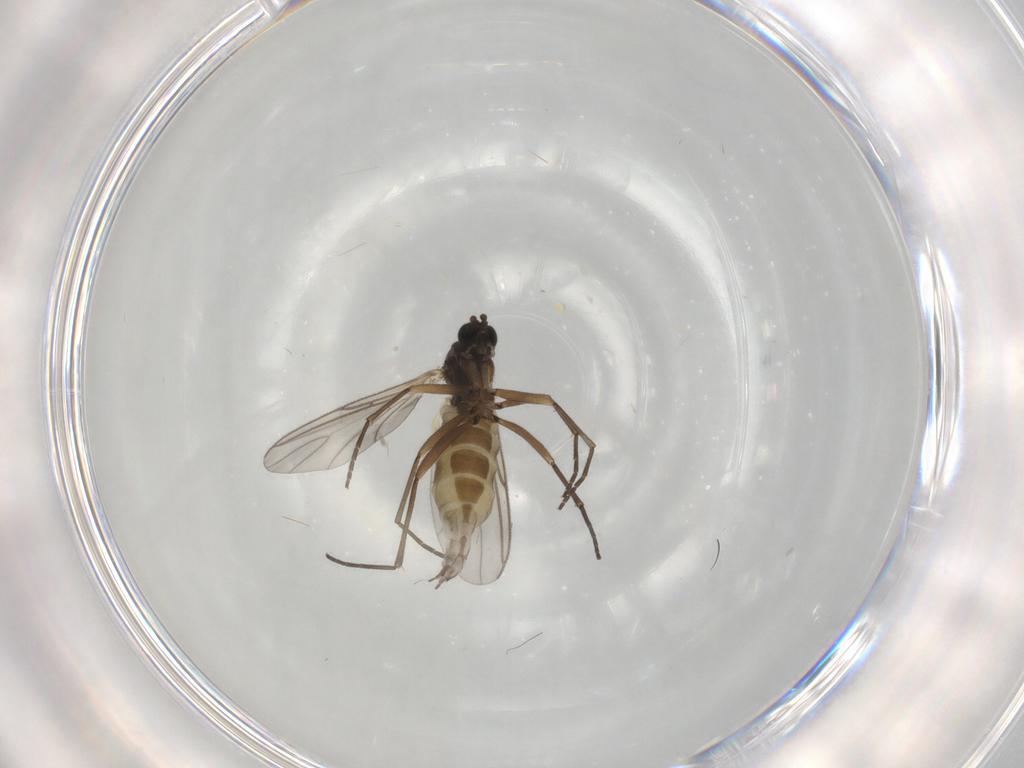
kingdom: Animalia
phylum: Arthropoda
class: Insecta
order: Diptera
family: Sciaridae
